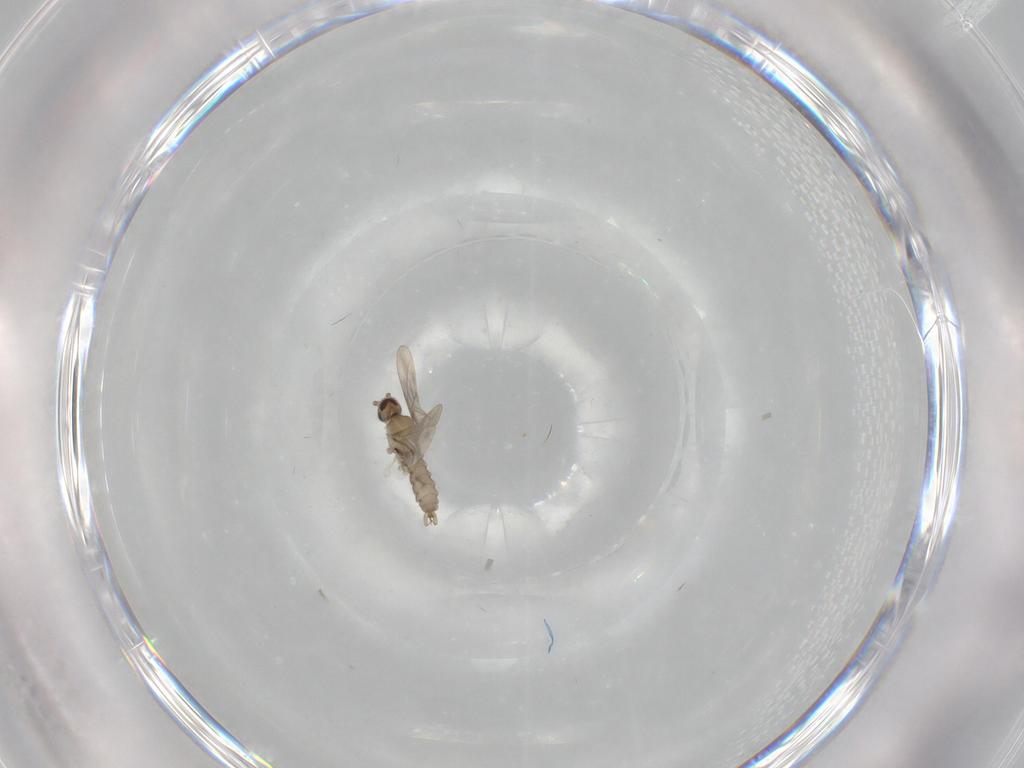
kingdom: Animalia
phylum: Arthropoda
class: Insecta
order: Diptera
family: Cecidomyiidae
